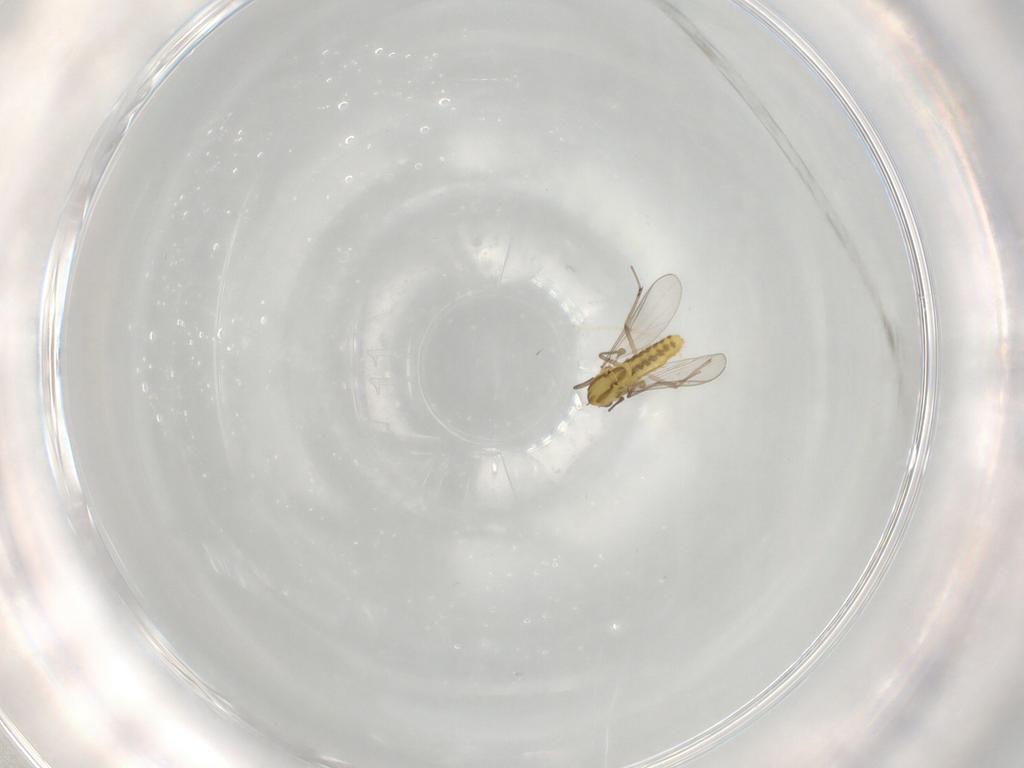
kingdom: Animalia
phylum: Arthropoda
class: Insecta
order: Diptera
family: Chironomidae
